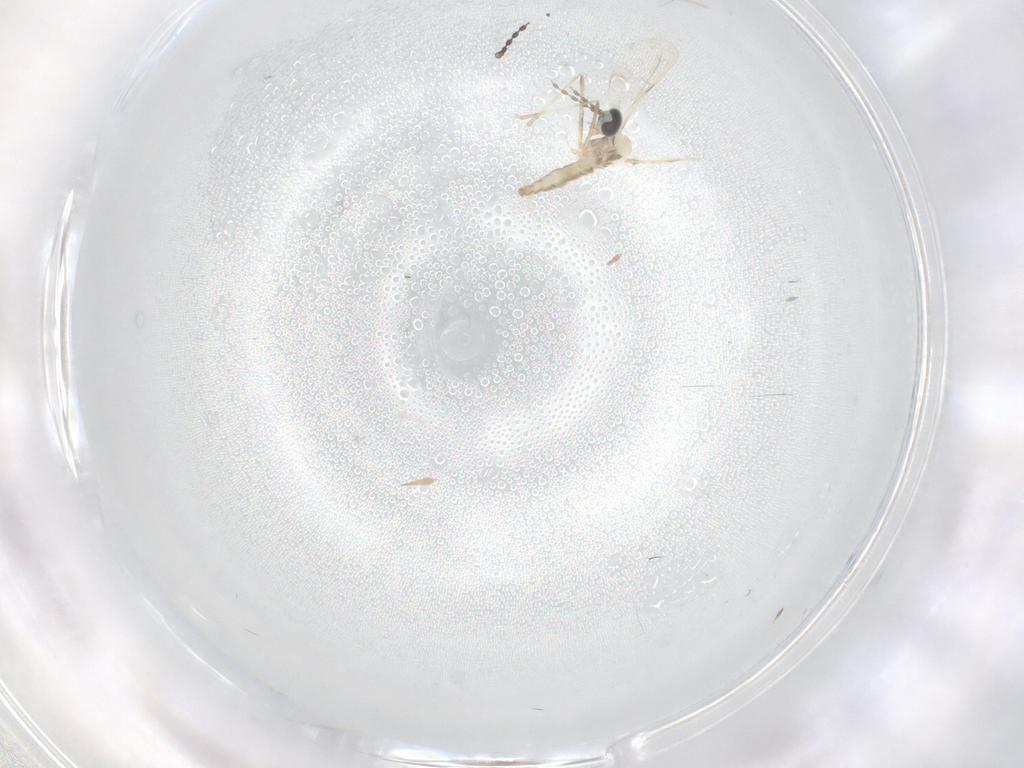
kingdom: Animalia
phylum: Arthropoda
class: Insecta
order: Diptera
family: Cecidomyiidae
